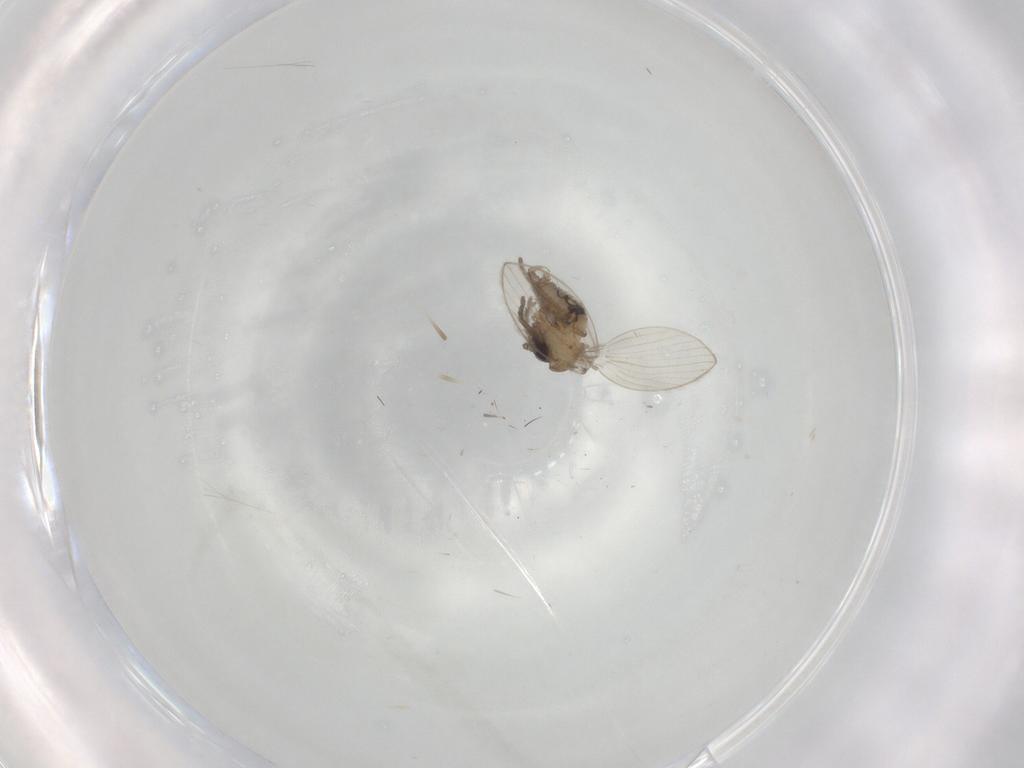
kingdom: Animalia
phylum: Arthropoda
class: Insecta
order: Diptera
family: Psychodidae
